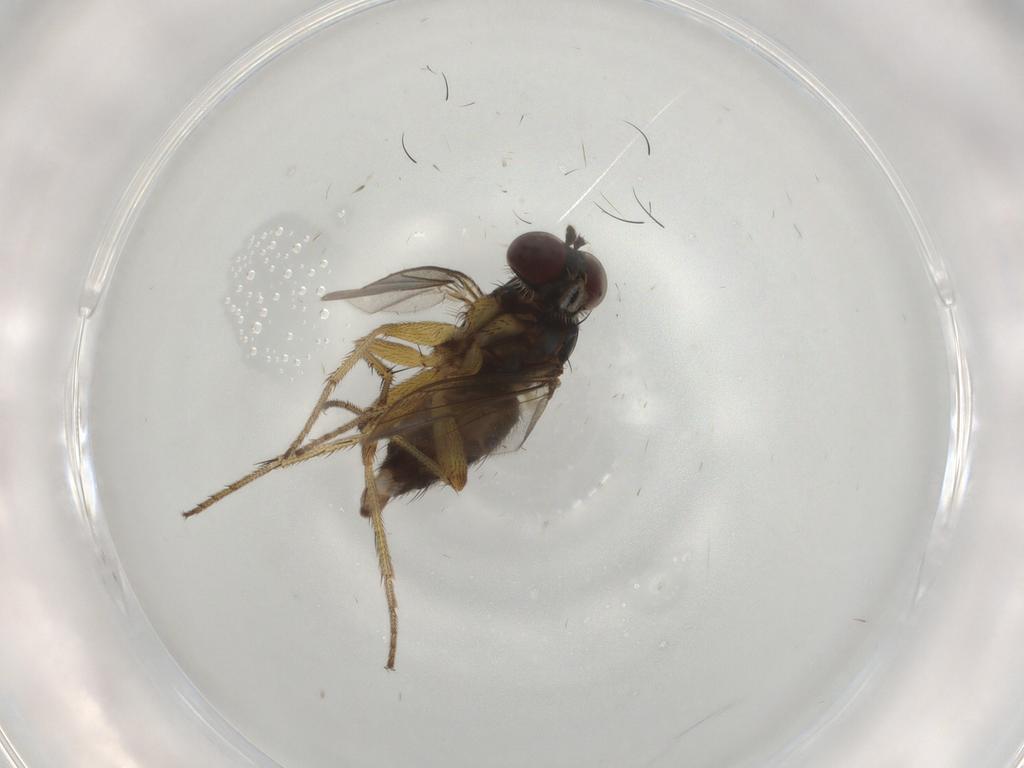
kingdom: Animalia
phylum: Arthropoda
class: Insecta
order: Diptera
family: Dolichopodidae
